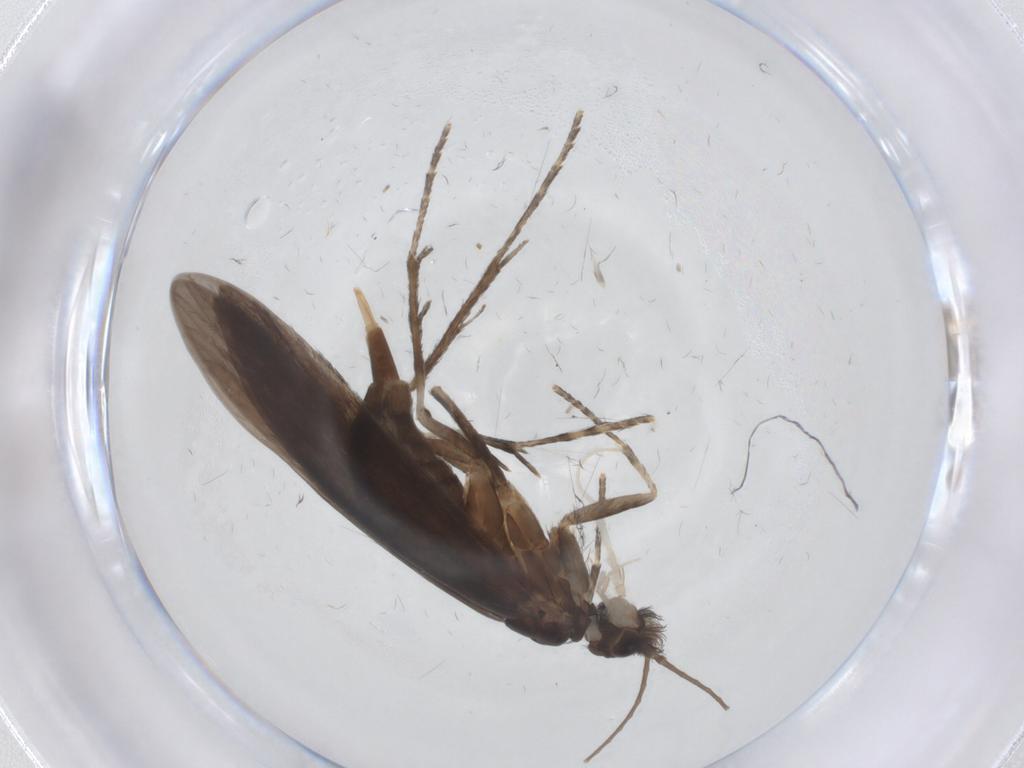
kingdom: Animalia
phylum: Arthropoda
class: Insecta
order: Trichoptera
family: Xiphocentronidae
